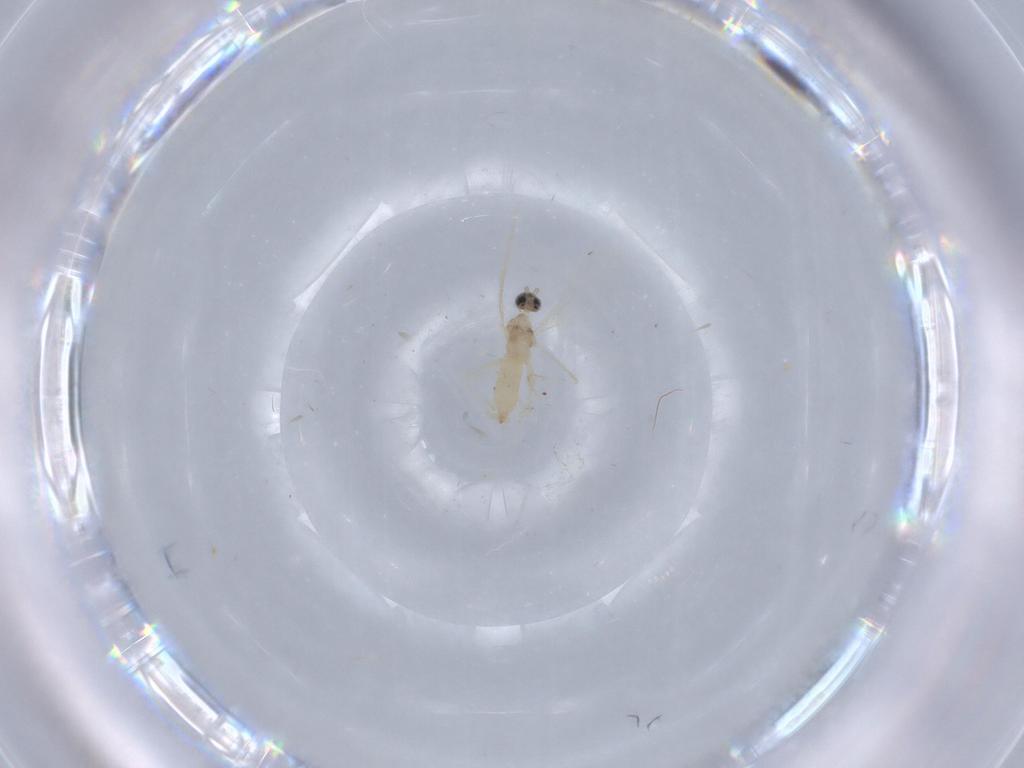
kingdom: Animalia
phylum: Arthropoda
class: Insecta
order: Diptera
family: Cecidomyiidae
